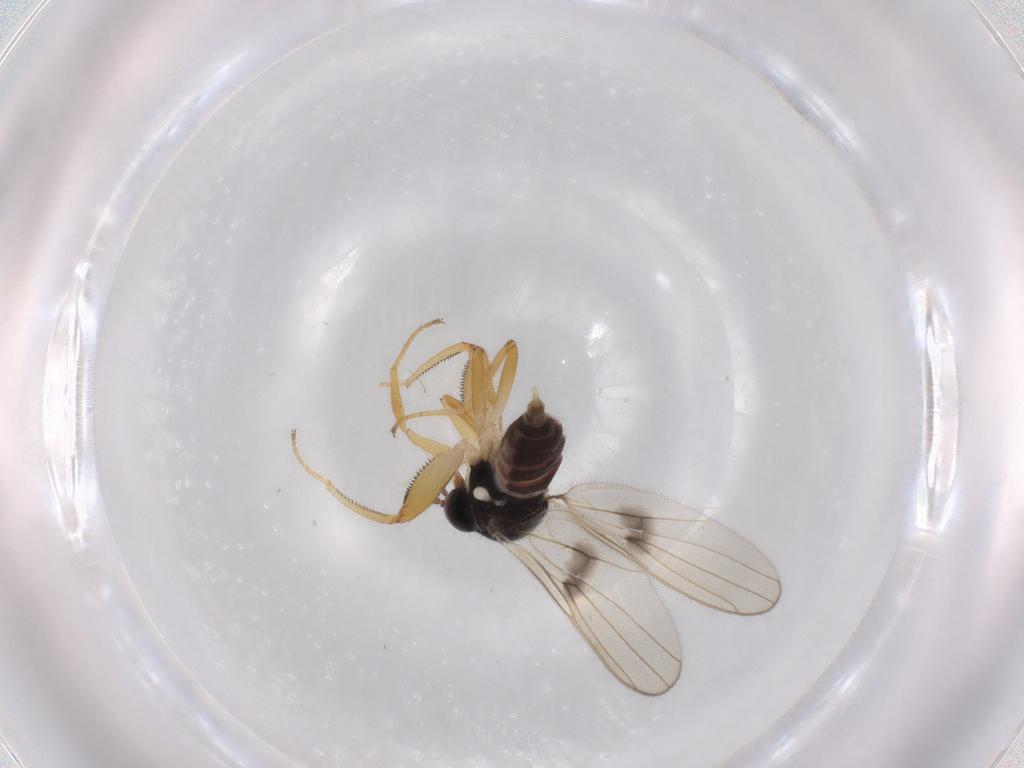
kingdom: Animalia
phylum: Arthropoda
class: Insecta
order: Diptera
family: Hybotidae
